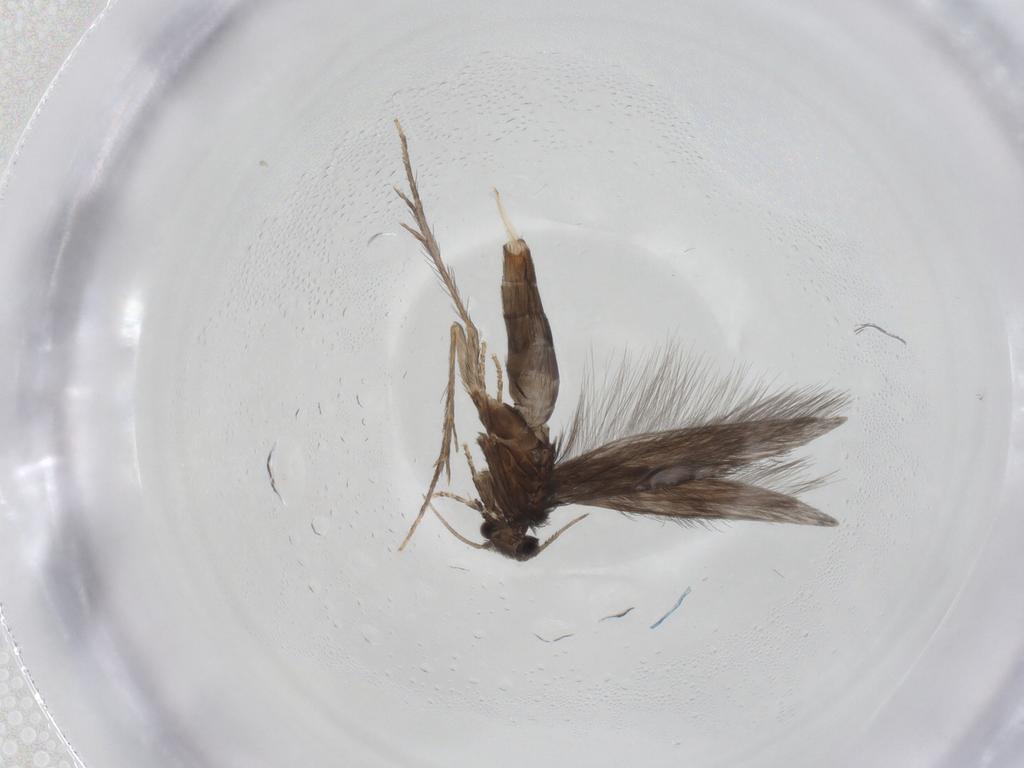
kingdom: Animalia
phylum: Arthropoda
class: Insecta
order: Trichoptera
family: Hydroptilidae
